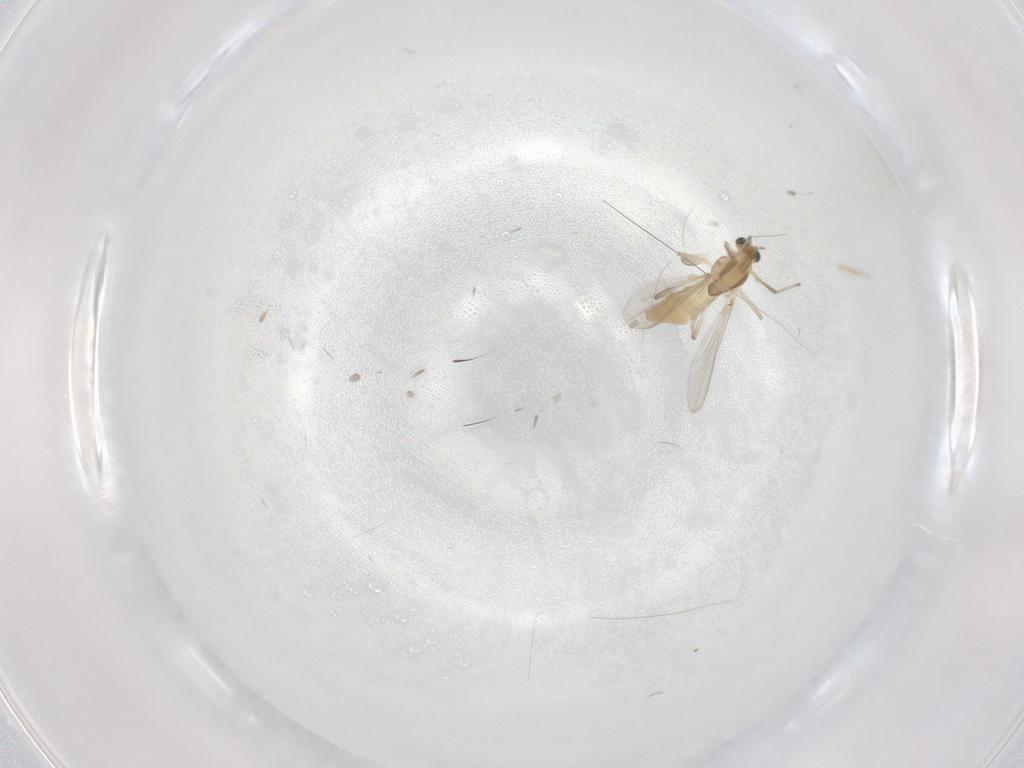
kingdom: Animalia
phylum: Arthropoda
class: Insecta
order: Diptera
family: Chironomidae
